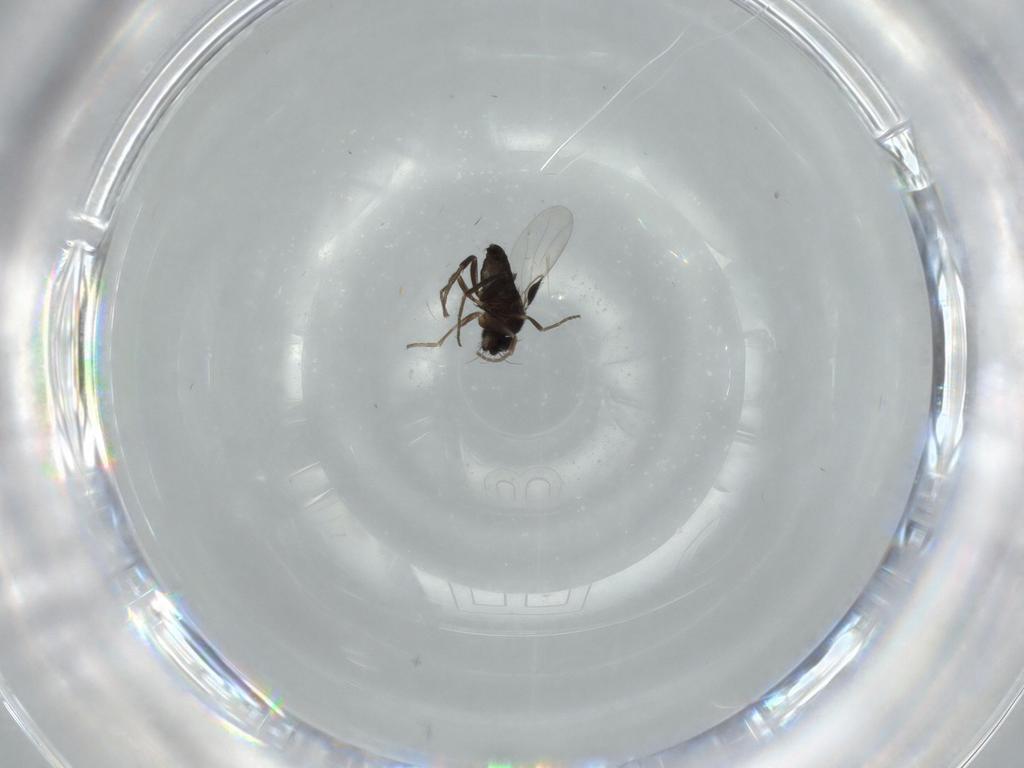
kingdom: Animalia
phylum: Arthropoda
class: Insecta
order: Diptera
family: Phoridae
